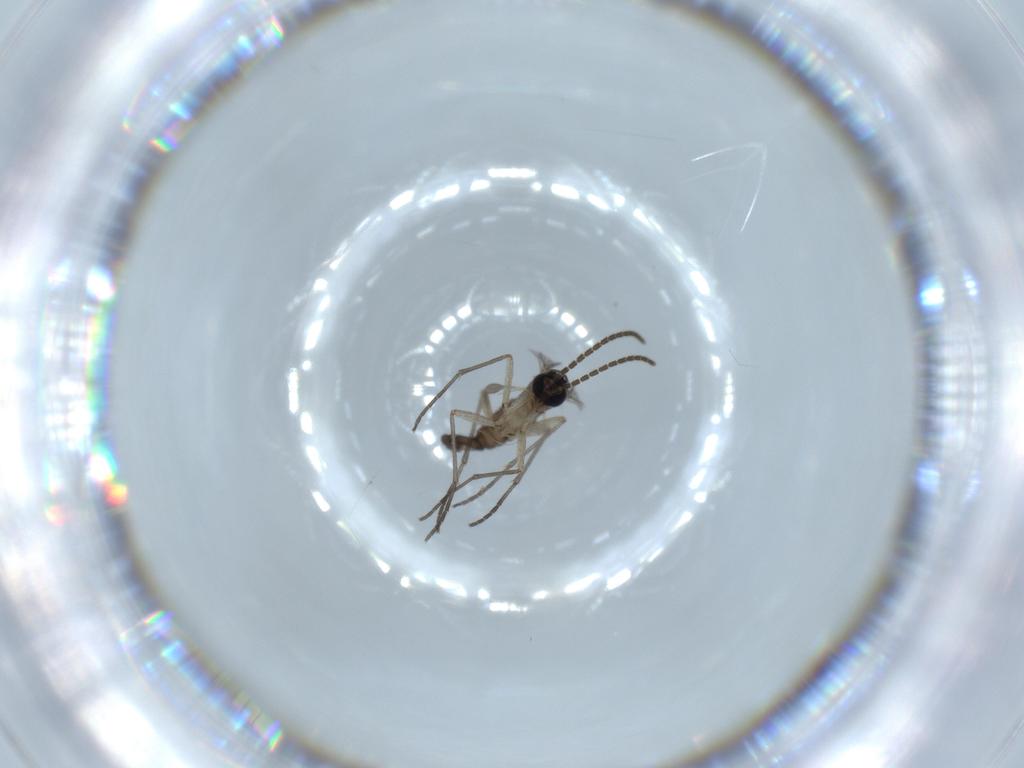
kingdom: Animalia
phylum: Arthropoda
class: Insecta
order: Diptera
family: Sciaridae
